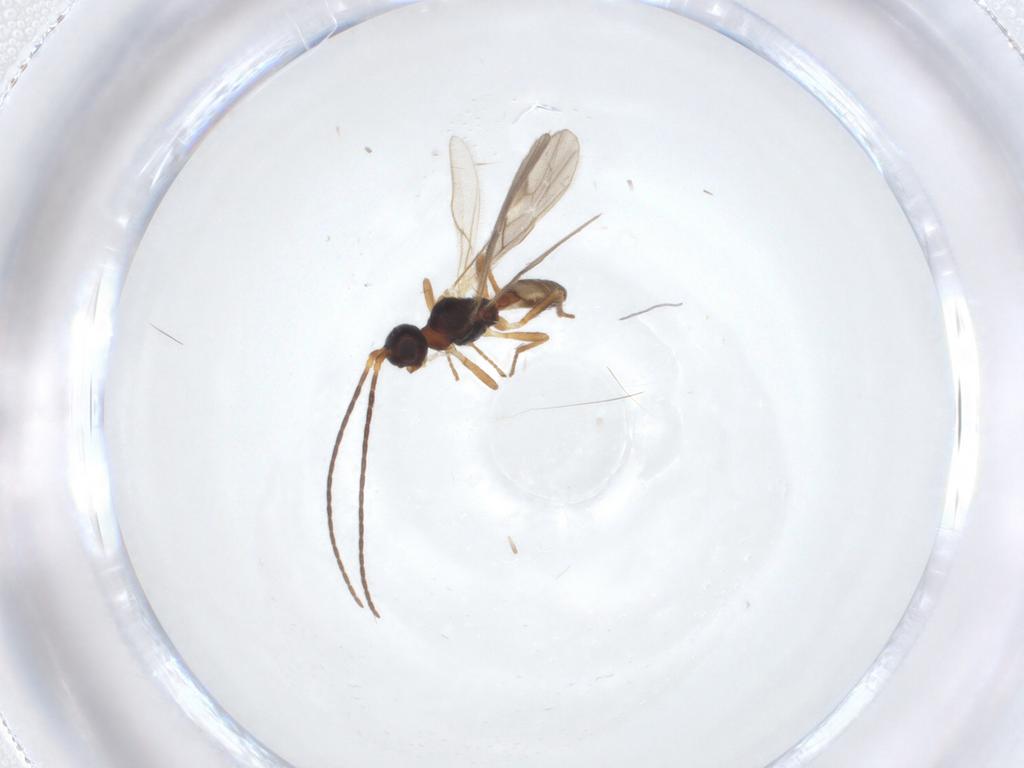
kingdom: Animalia
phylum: Arthropoda
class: Insecta
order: Hymenoptera
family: Braconidae
